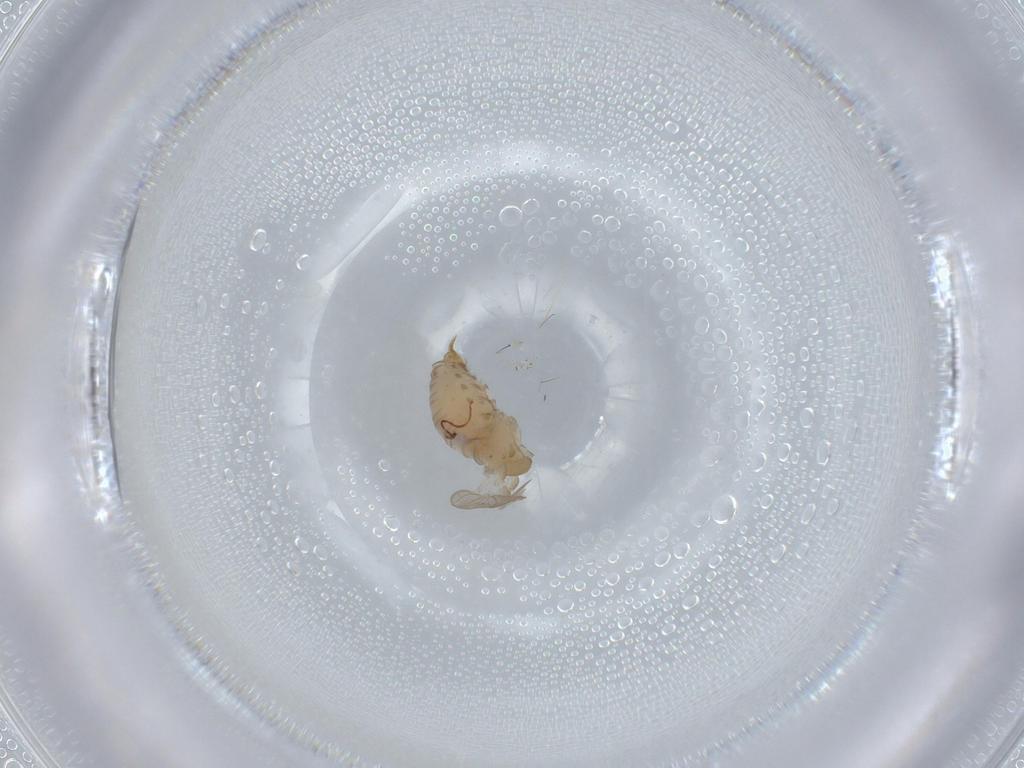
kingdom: Animalia
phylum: Arthropoda
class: Insecta
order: Diptera
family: Psychodidae
